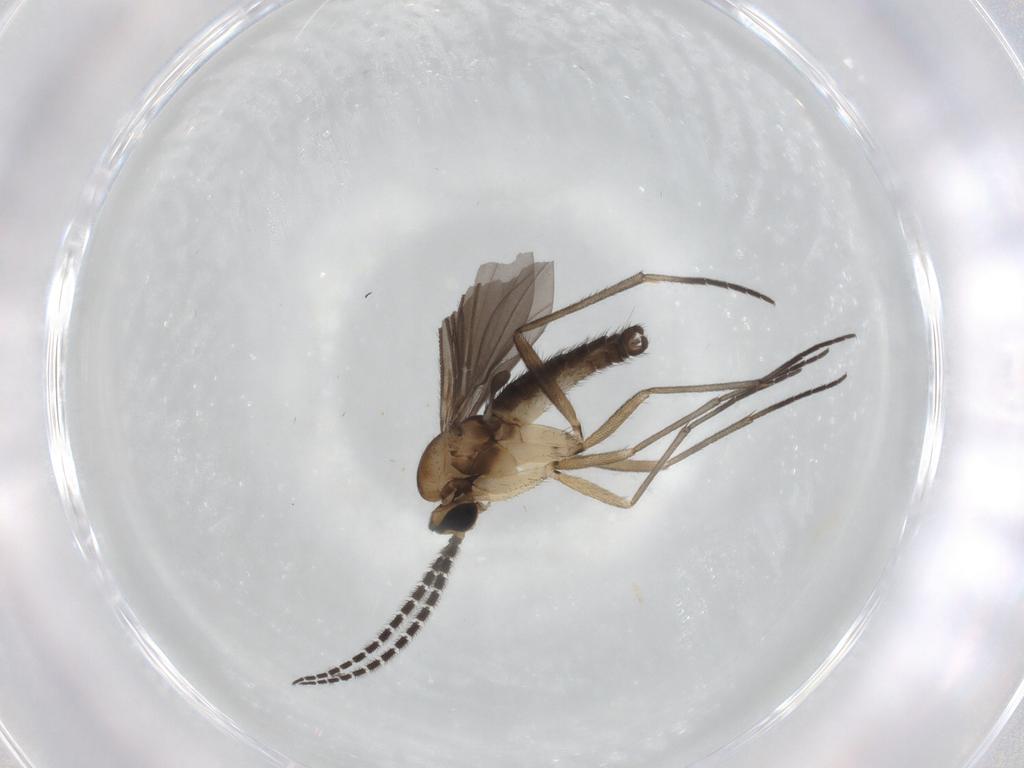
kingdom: Animalia
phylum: Arthropoda
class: Insecta
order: Diptera
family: Sciaridae
